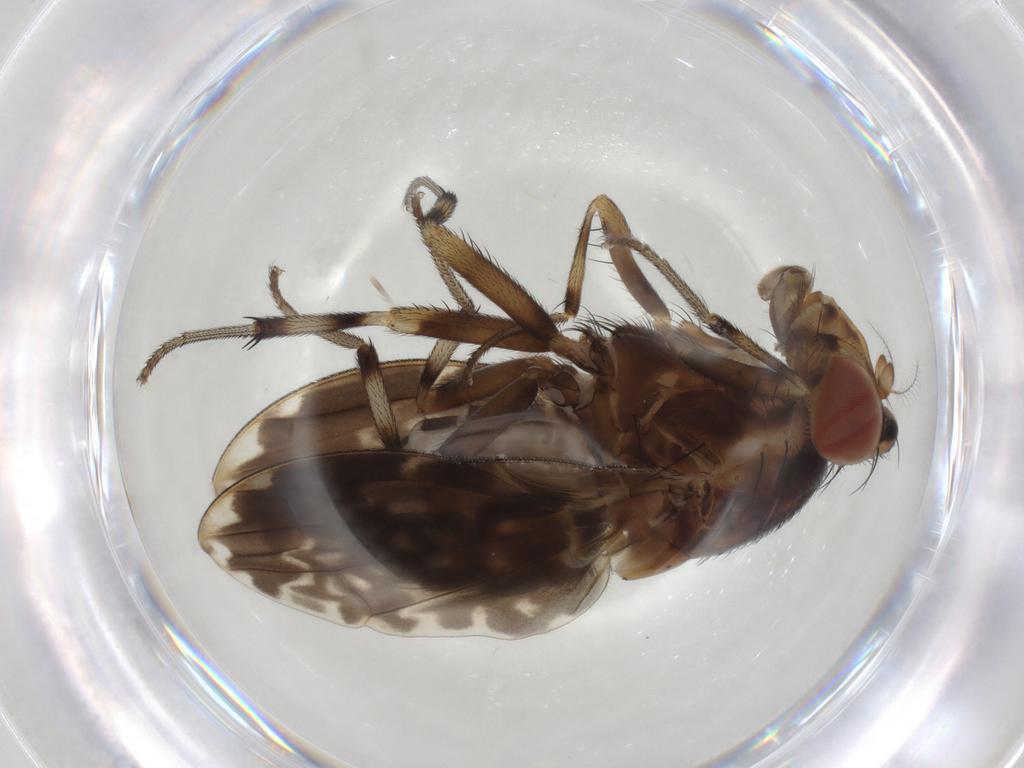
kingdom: Animalia
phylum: Arthropoda
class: Insecta
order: Diptera
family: Lauxaniidae
